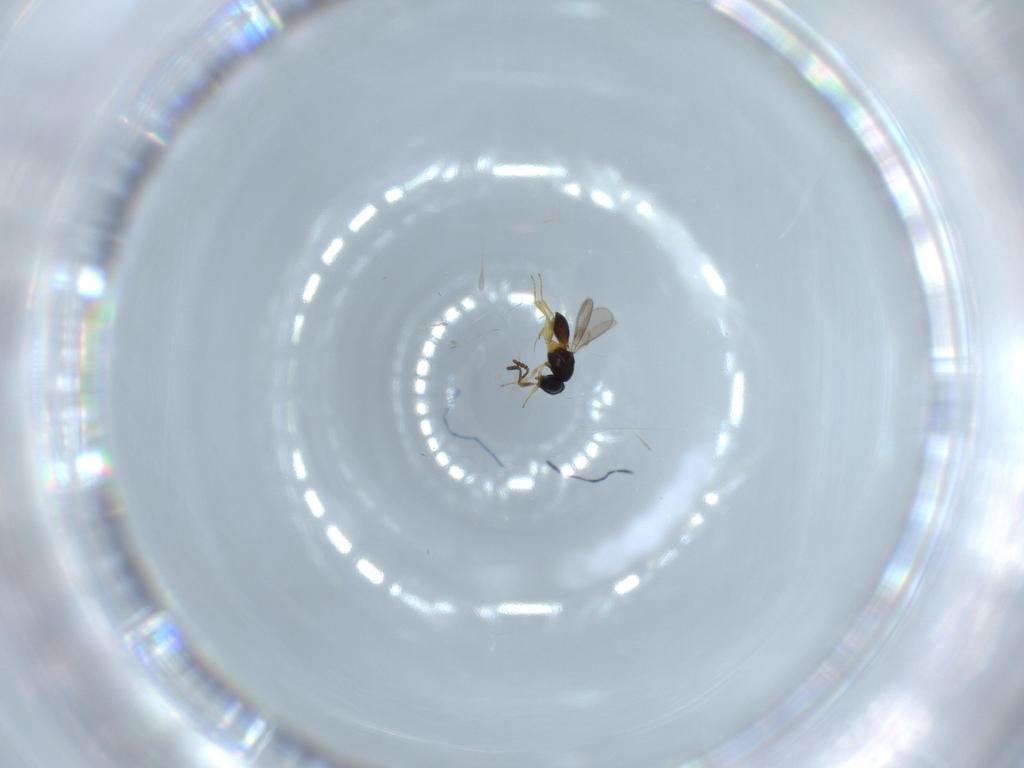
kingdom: Animalia
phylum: Arthropoda
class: Insecta
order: Hymenoptera
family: Scelionidae
